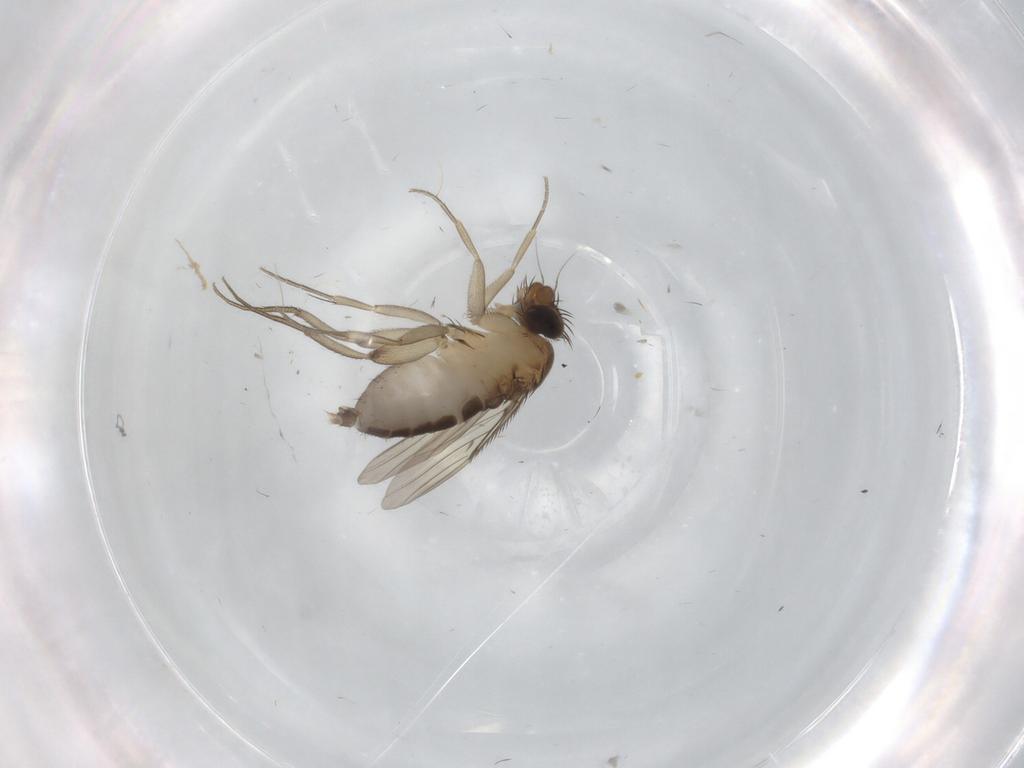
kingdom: Animalia
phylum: Arthropoda
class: Insecta
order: Diptera
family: Phoridae
